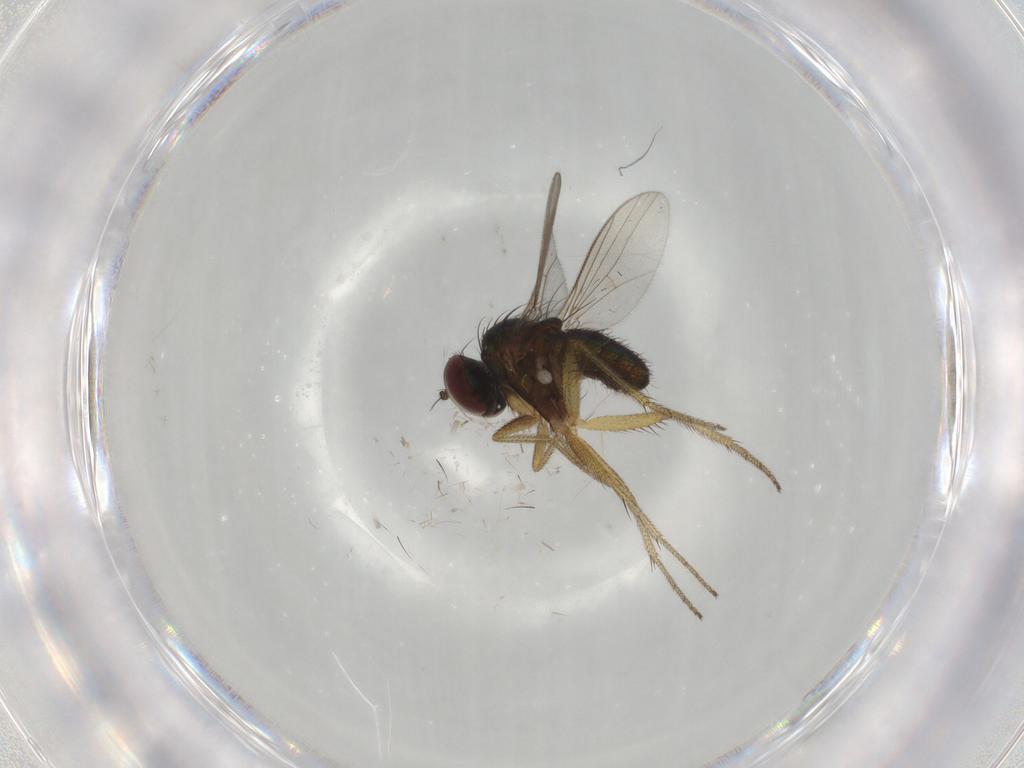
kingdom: Animalia
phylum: Arthropoda
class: Insecta
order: Diptera
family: Dolichopodidae
